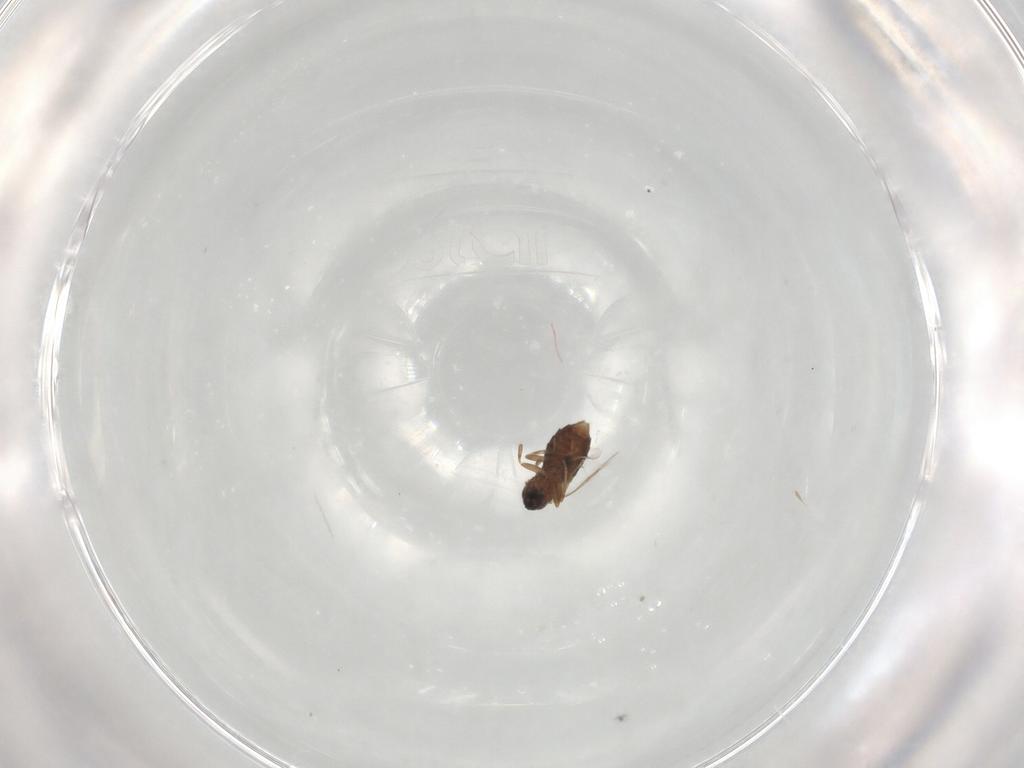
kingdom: Animalia
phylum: Arthropoda
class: Insecta
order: Diptera
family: Scatopsidae
